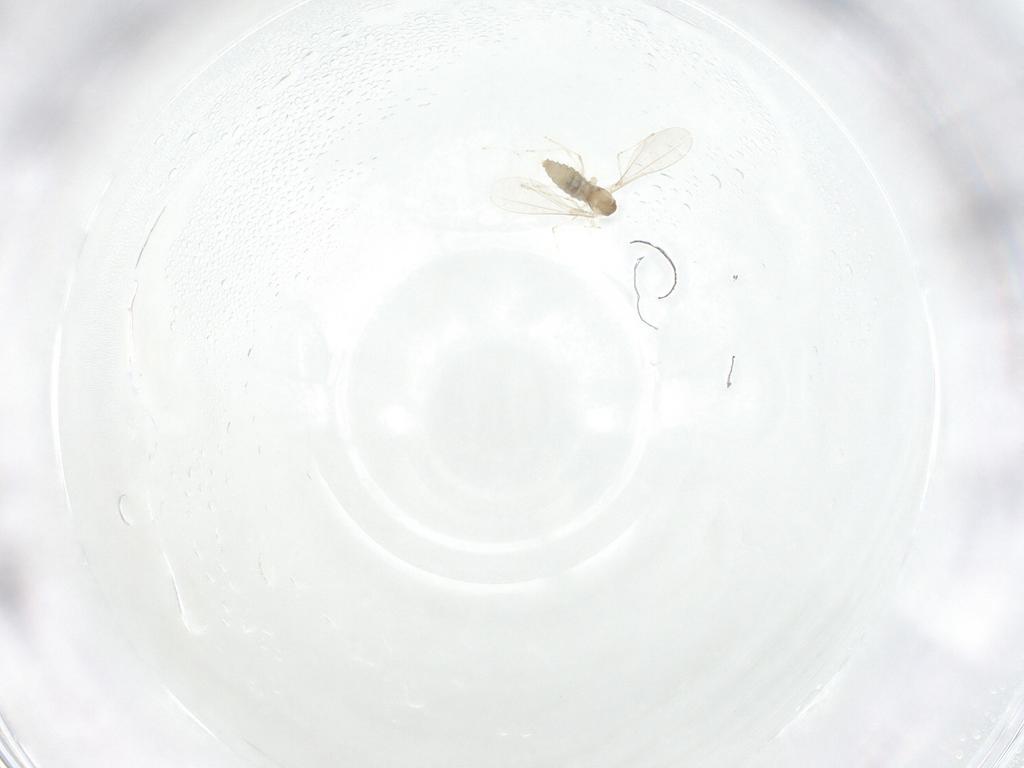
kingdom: Animalia
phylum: Arthropoda
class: Insecta
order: Diptera
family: Cecidomyiidae
